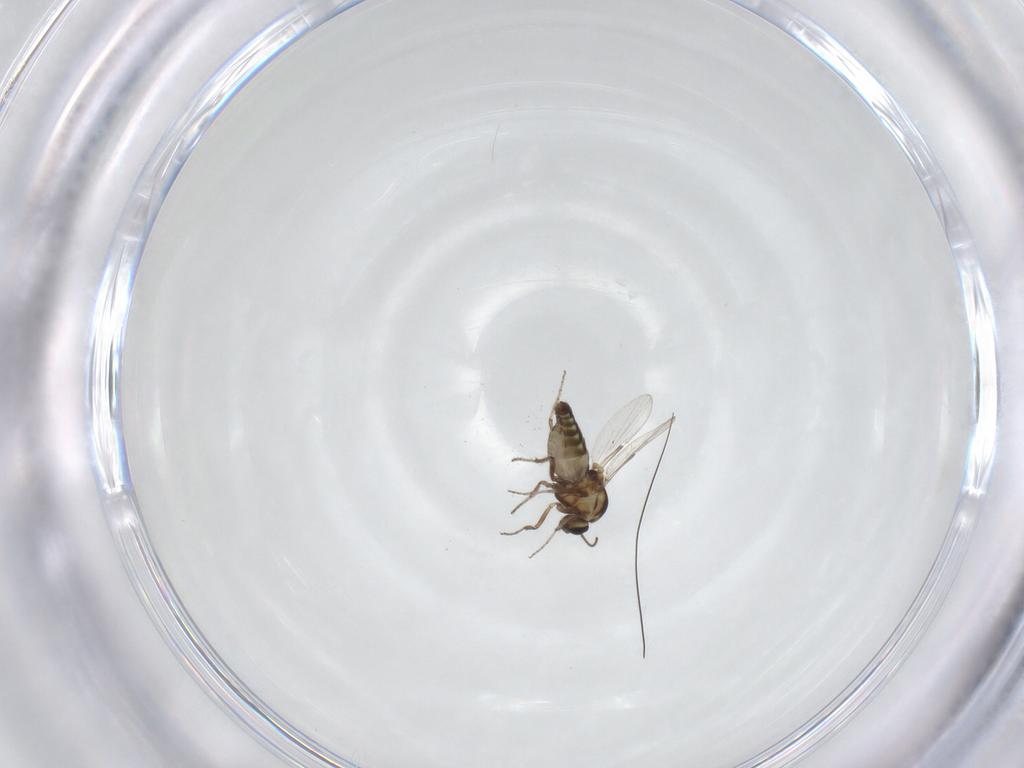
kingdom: Animalia
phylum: Arthropoda
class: Insecta
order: Diptera
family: Ceratopogonidae
